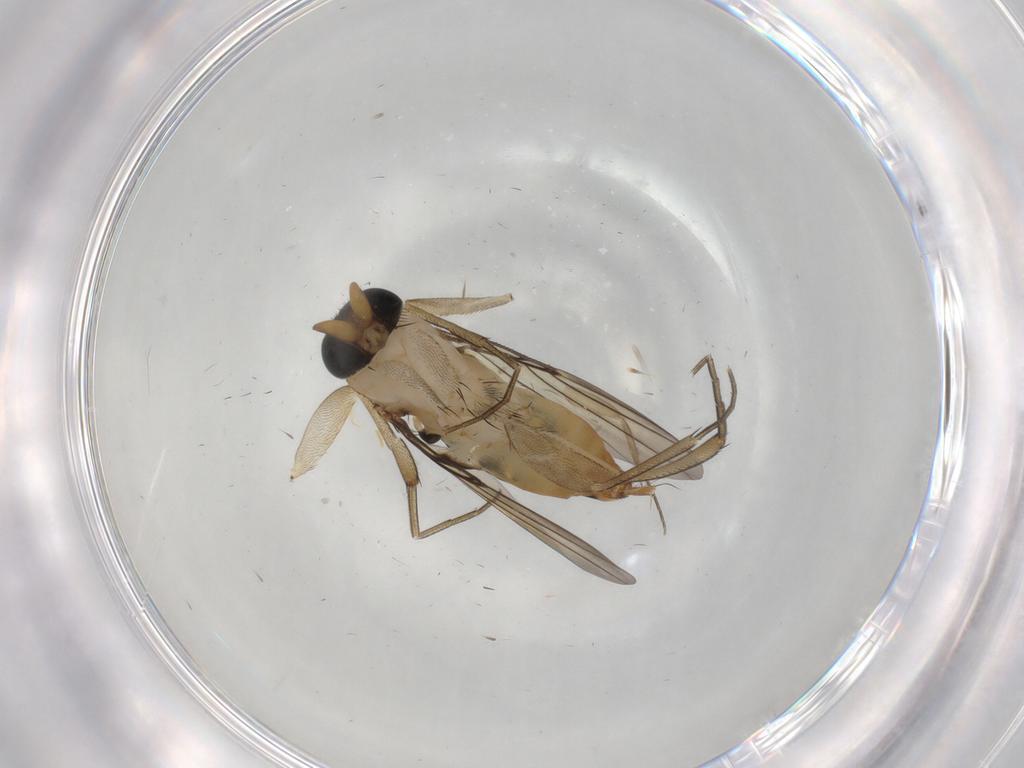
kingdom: Animalia
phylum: Arthropoda
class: Insecta
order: Diptera
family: Phoridae
